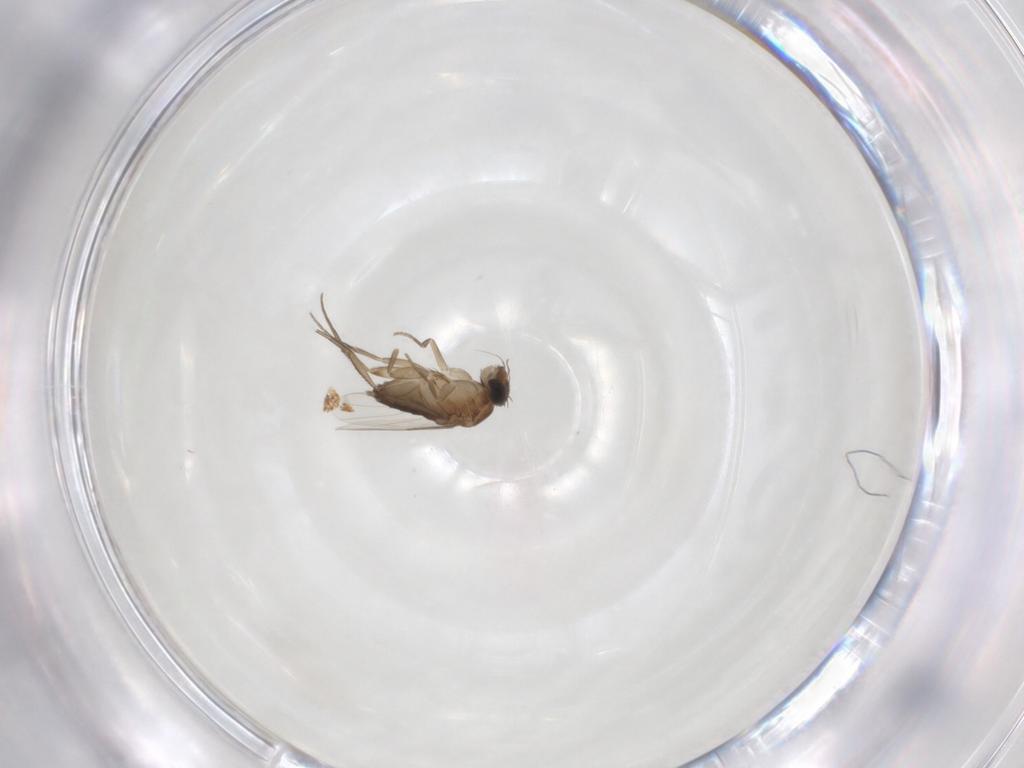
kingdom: Animalia
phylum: Arthropoda
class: Insecta
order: Diptera
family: Phoridae
